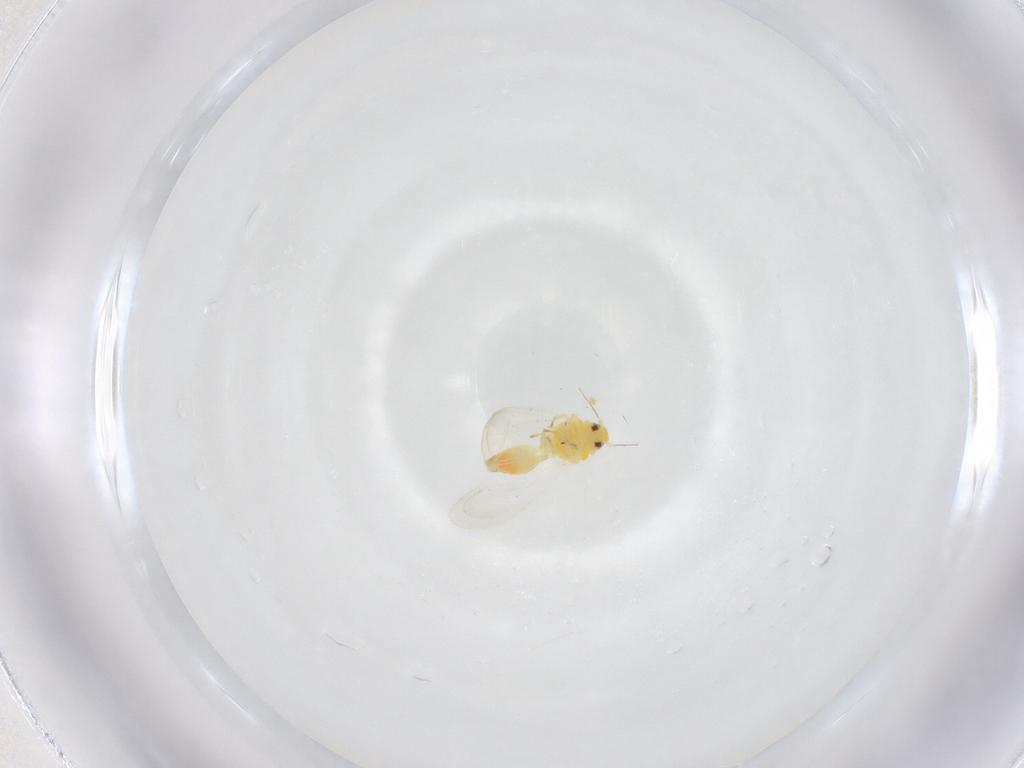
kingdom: Animalia
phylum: Arthropoda
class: Insecta
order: Hemiptera
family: Aleyrodidae
